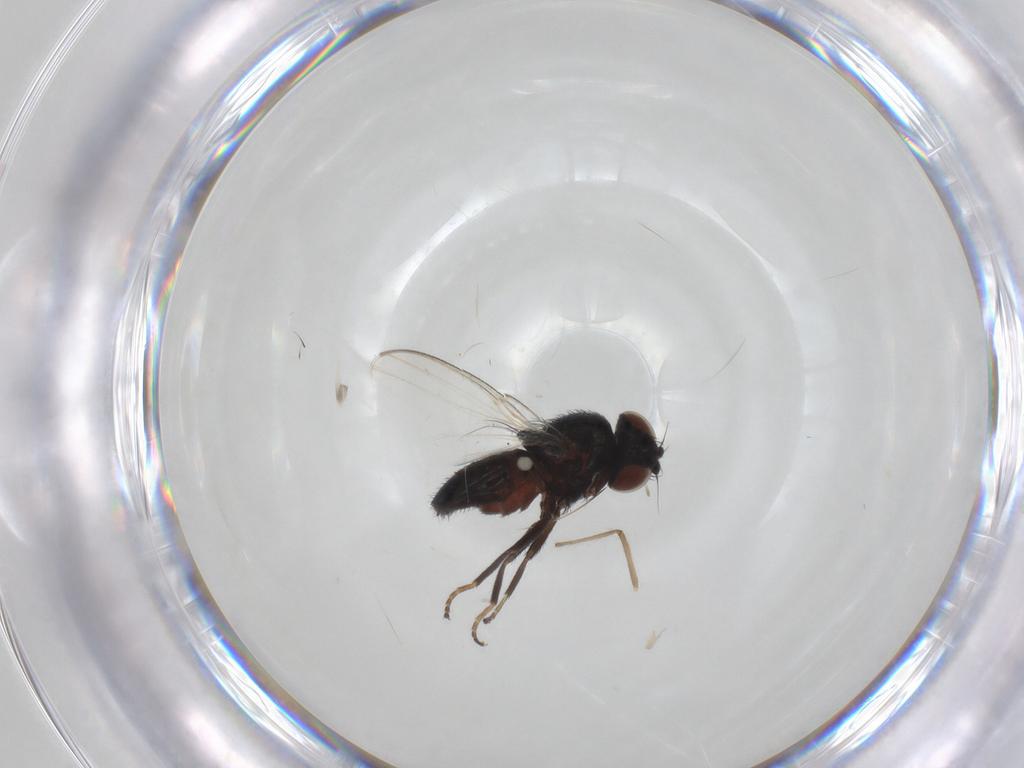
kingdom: Animalia
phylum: Arthropoda
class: Insecta
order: Diptera
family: Milichiidae
